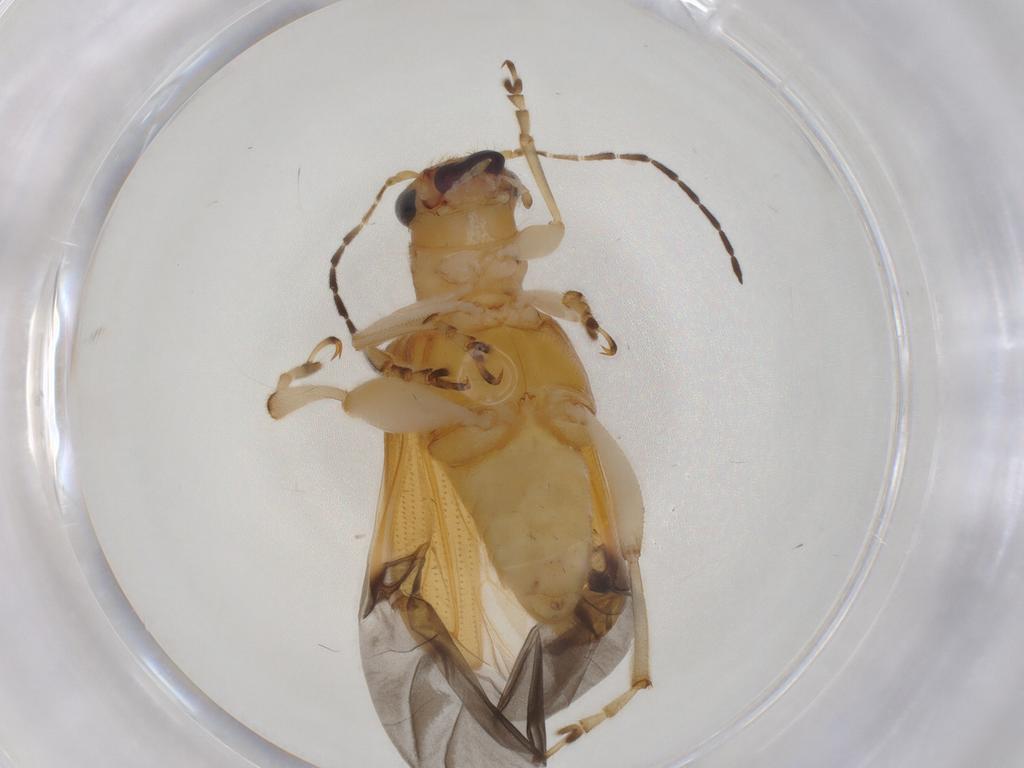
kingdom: Animalia
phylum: Arthropoda
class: Insecta
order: Coleoptera
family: Chrysomelidae
